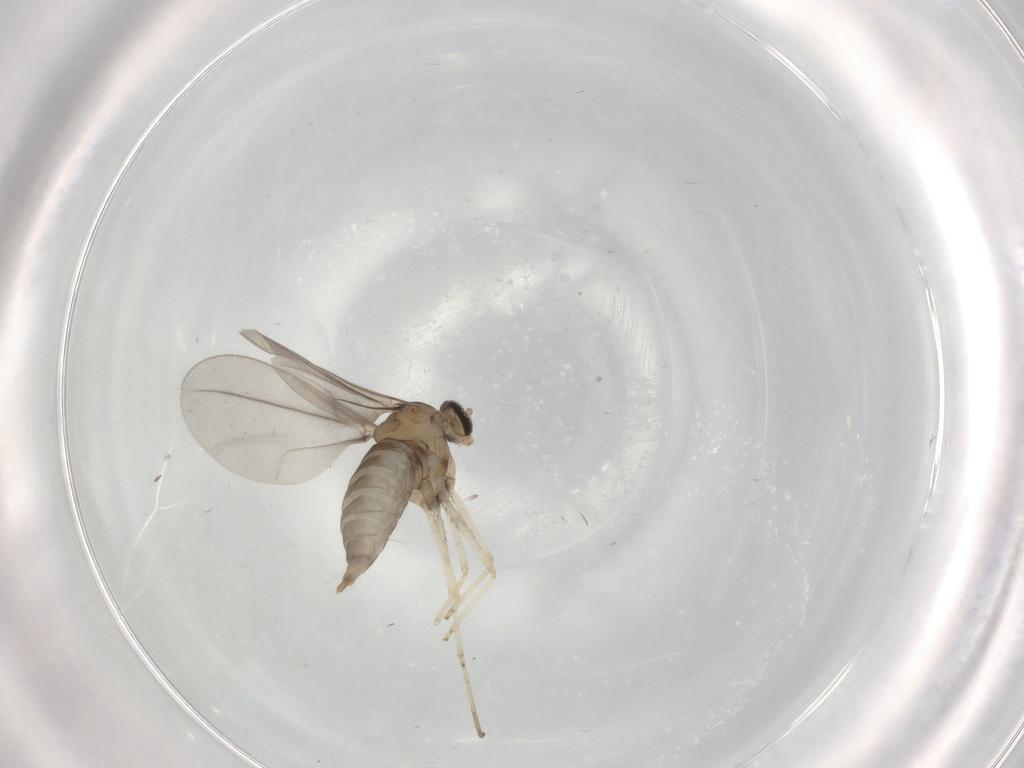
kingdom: Animalia
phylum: Arthropoda
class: Insecta
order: Diptera
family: Cecidomyiidae
